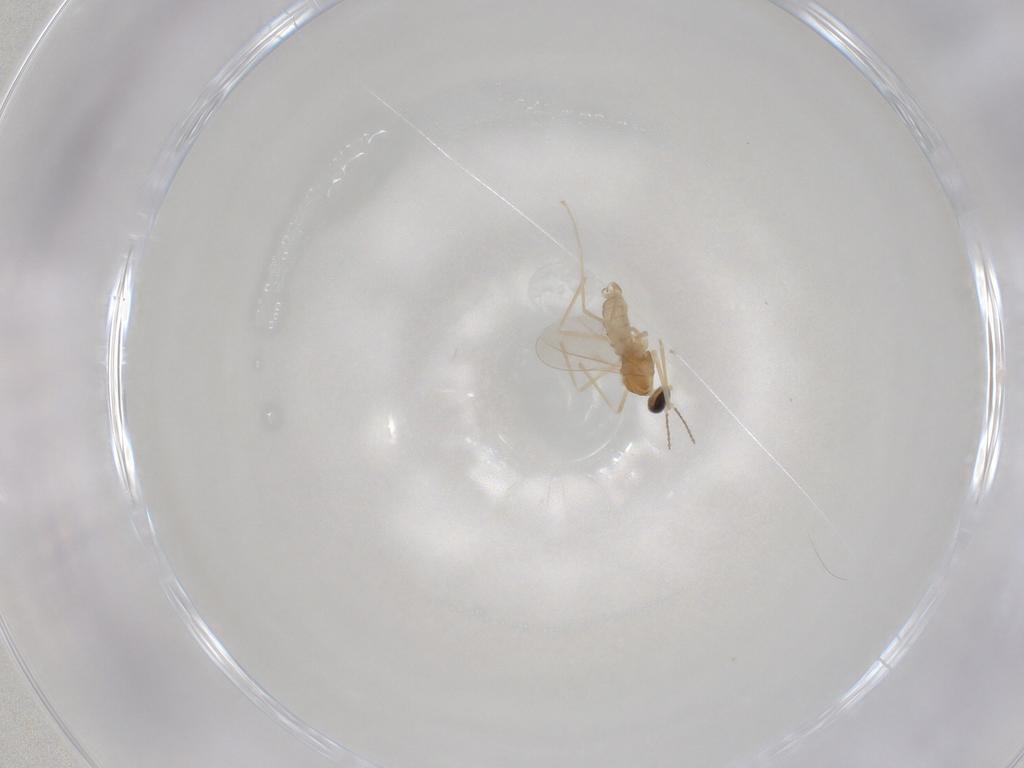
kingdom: Animalia
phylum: Arthropoda
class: Insecta
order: Diptera
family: Cecidomyiidae
